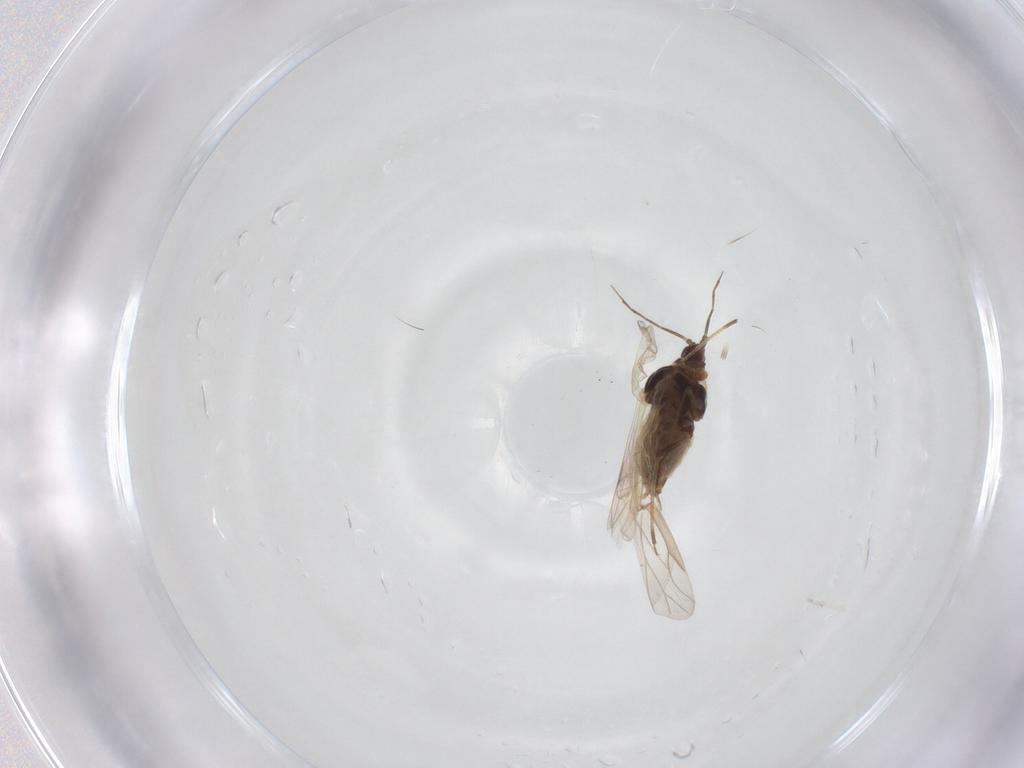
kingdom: Animalia
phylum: Arthropoda
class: Insecta
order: Hemiptera
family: Aphididae
